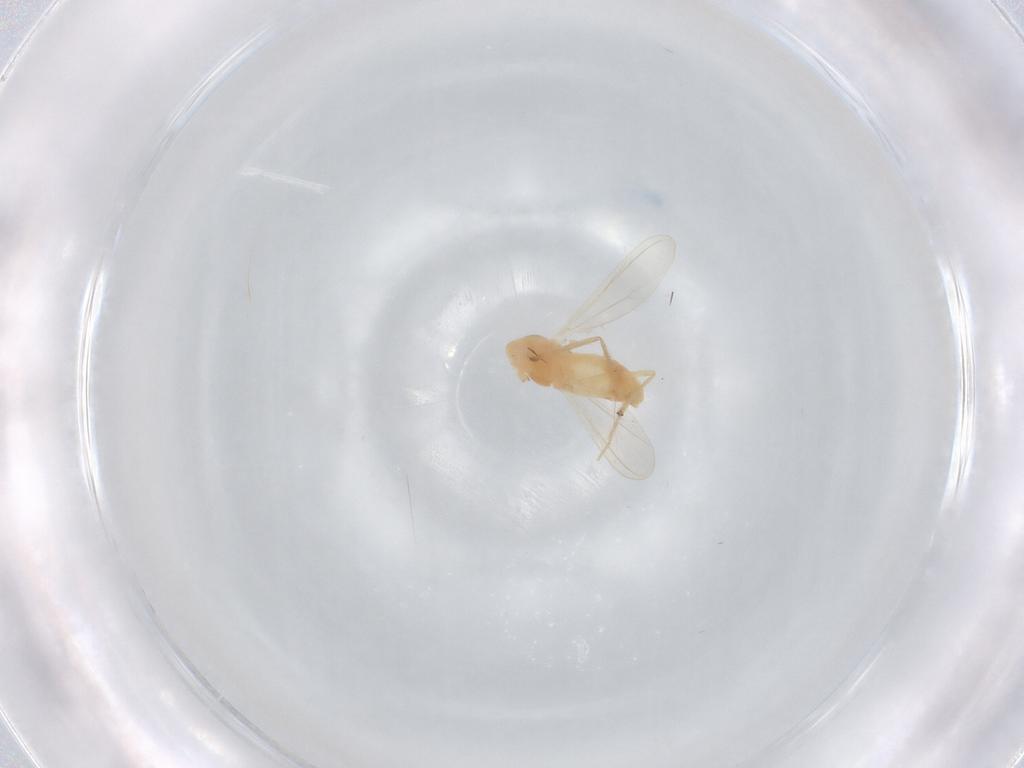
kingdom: Animalia
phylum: Arthropoda
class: Insecta
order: Diptera
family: Chironomidae
